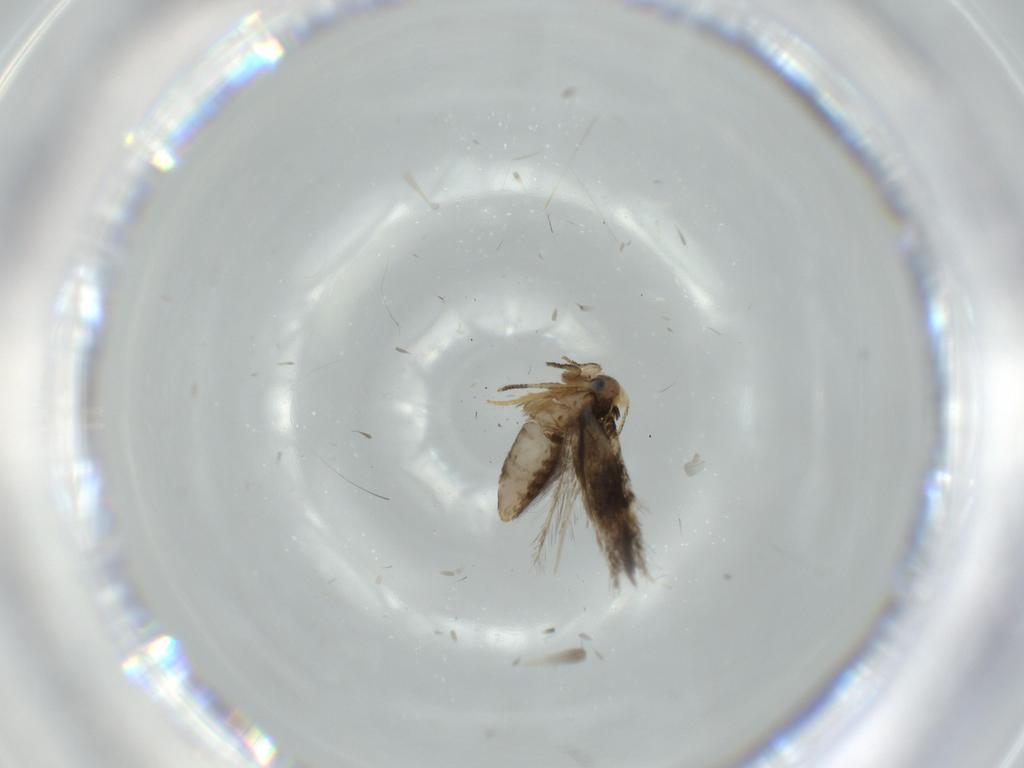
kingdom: Animalia
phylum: Arthropoda
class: Insecta
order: Lepidoptera
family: Nepticulidae
